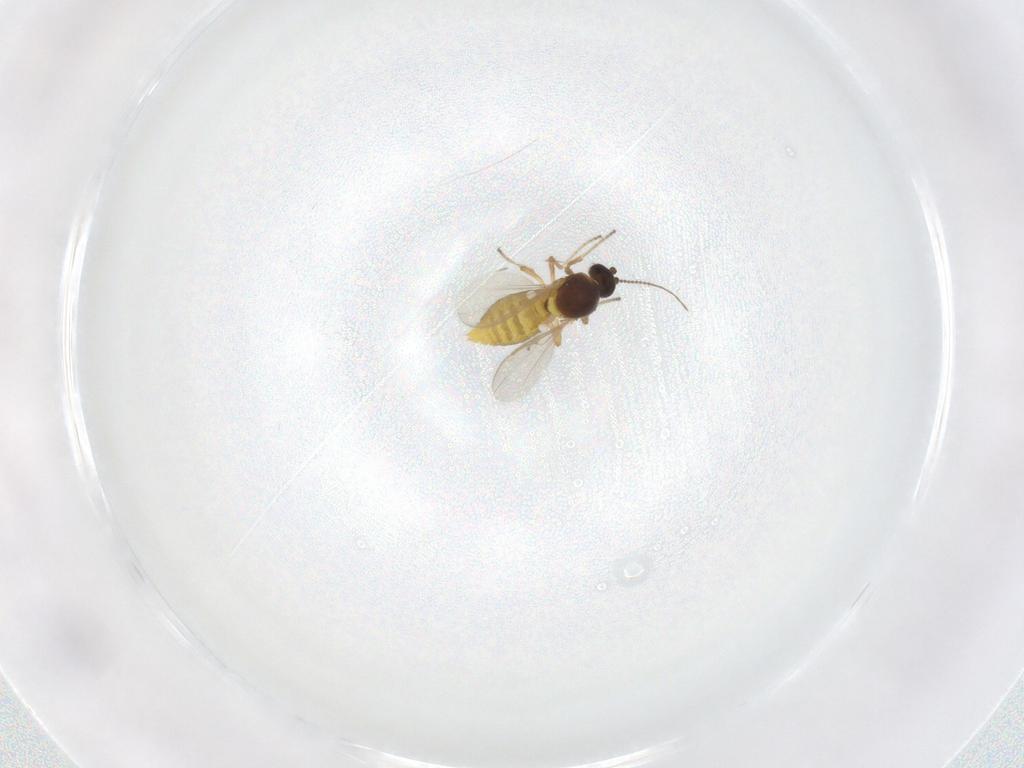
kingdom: Animalia
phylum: Arthropoda
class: Insecta
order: Diptera
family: Ceratopogonidae
